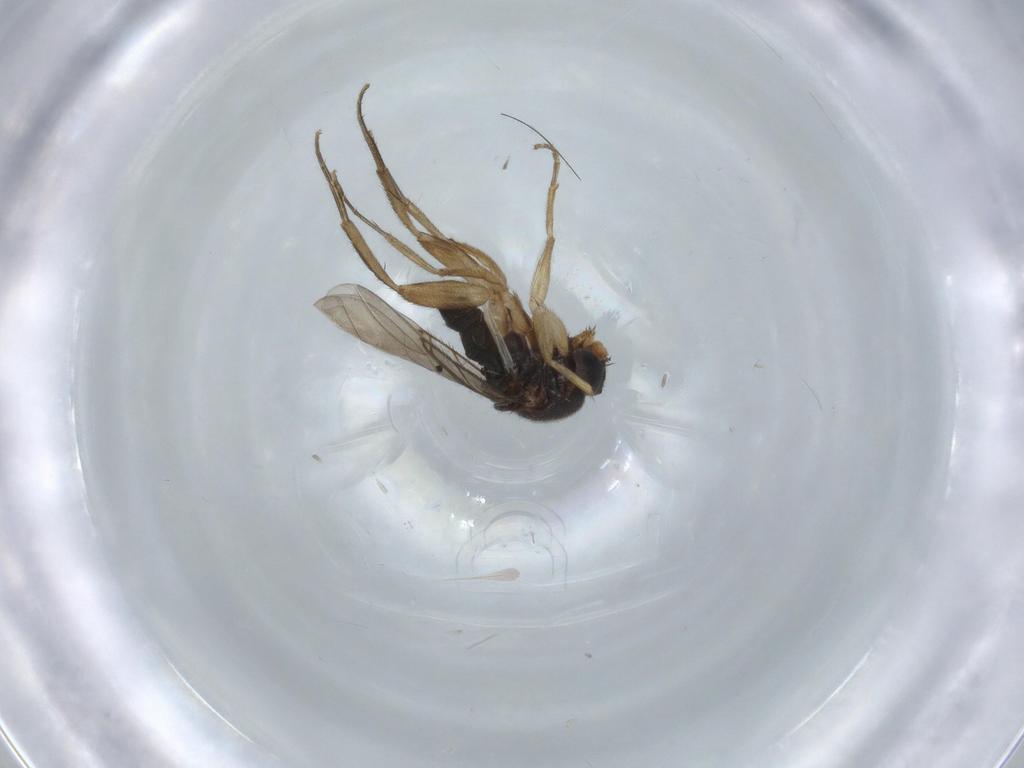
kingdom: Animalia
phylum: Arthropoda
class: Insecta
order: Diptera
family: Phoridae
